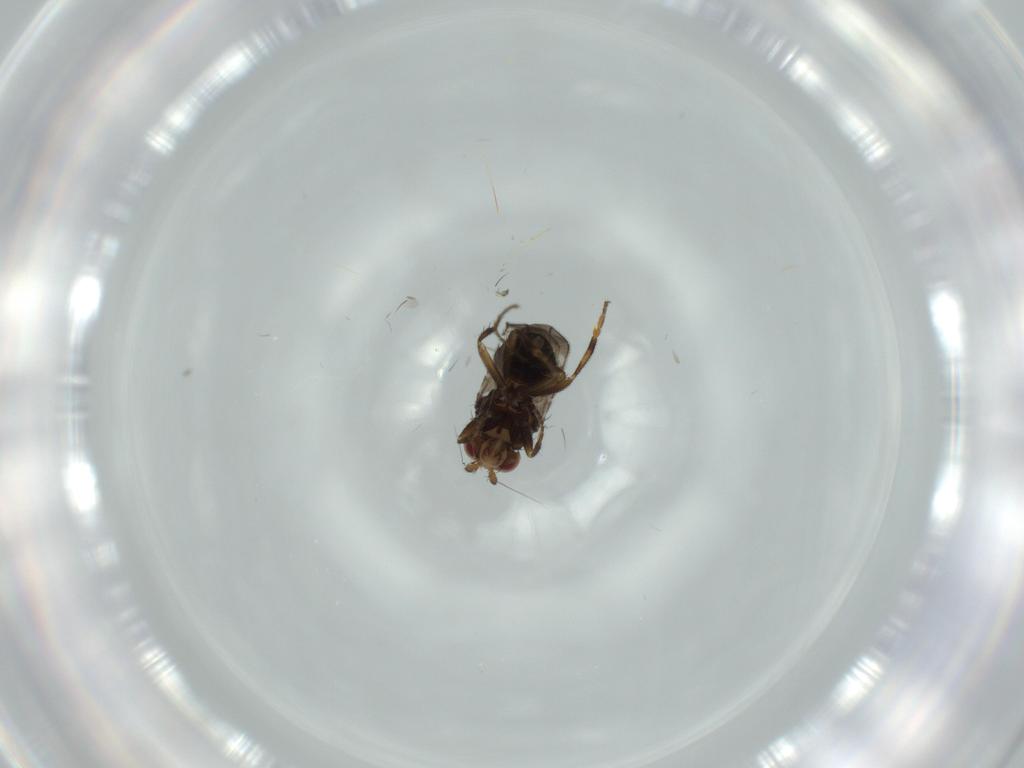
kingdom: Animalia
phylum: Arthropoda
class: Insecta
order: Diptera
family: Sphaeroceridae
